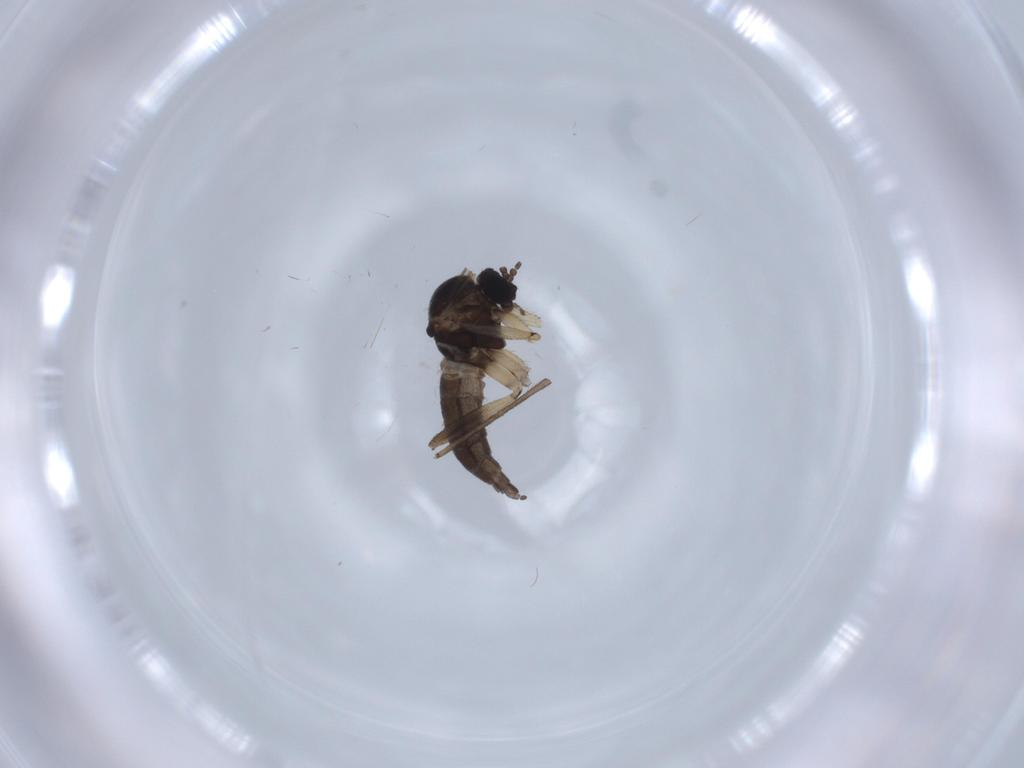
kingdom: Animalia
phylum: Arthropoda
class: Insecta
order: Diptera
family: Sciaridae
